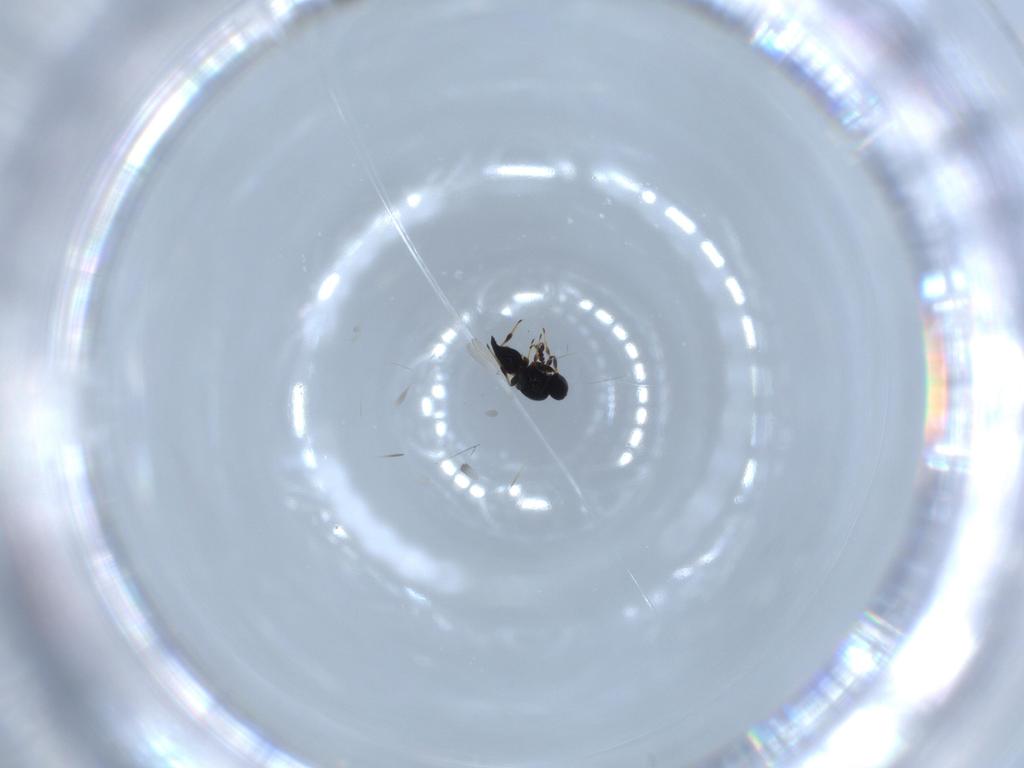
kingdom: Animalia
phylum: Arthropoda
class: Insecta
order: Hymenoptera
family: Platygastridae
